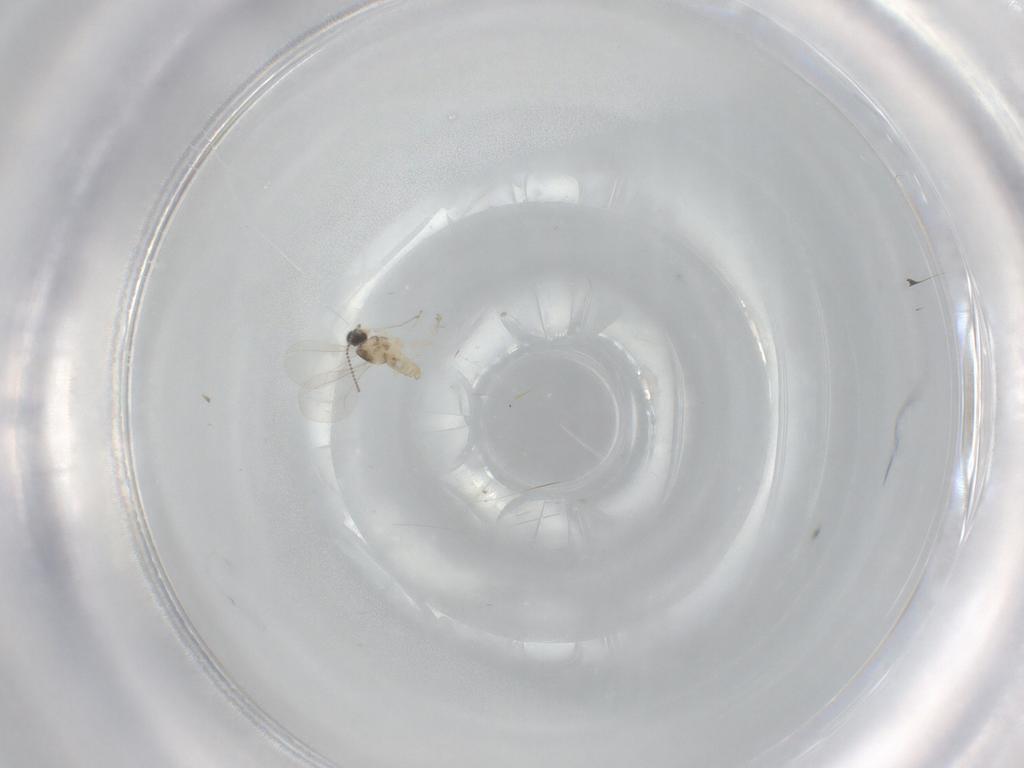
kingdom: Animalia
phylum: Arthropoda
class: Insecta
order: Diptera
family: Cecidomyiidae
